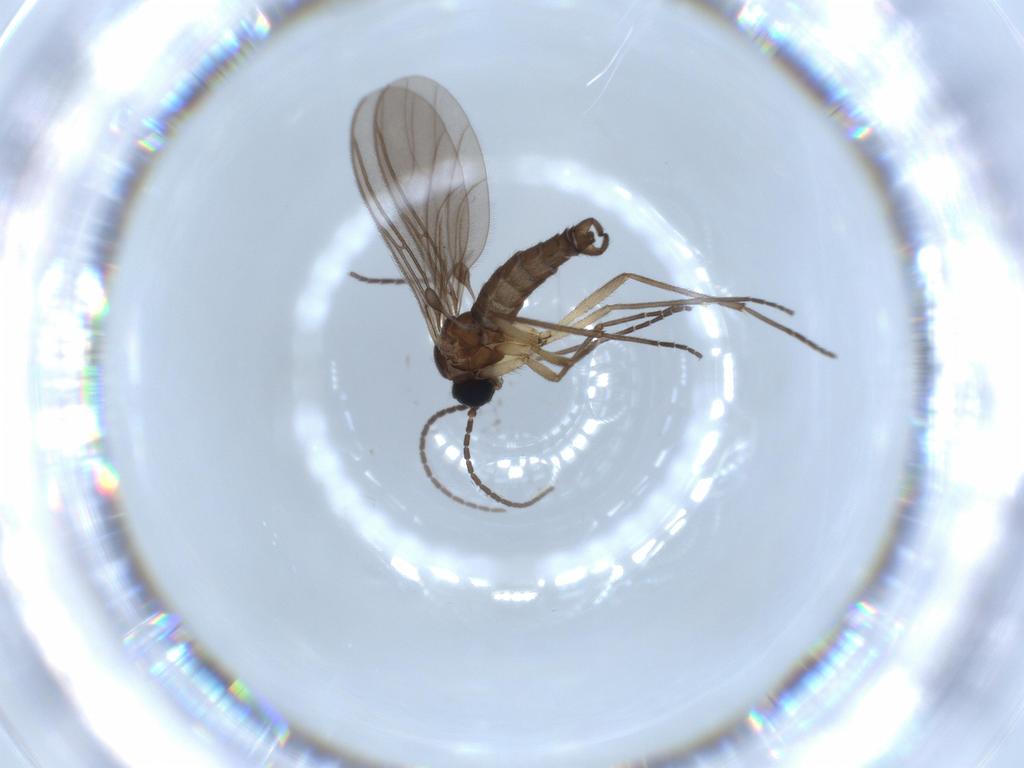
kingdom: Animalia
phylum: Arthropoda
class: Insecta
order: Diptera
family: Sciaridae
